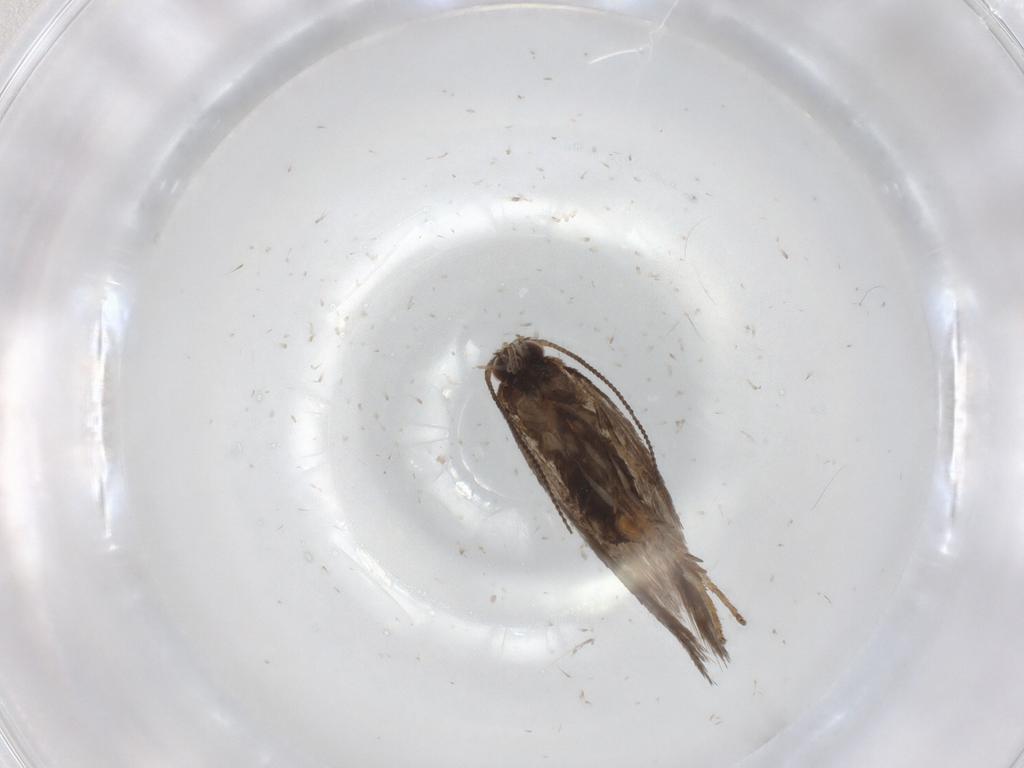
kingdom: Animalia
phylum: Arthropoda
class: Insecta
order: Lepidoptera
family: Nepticulidae
